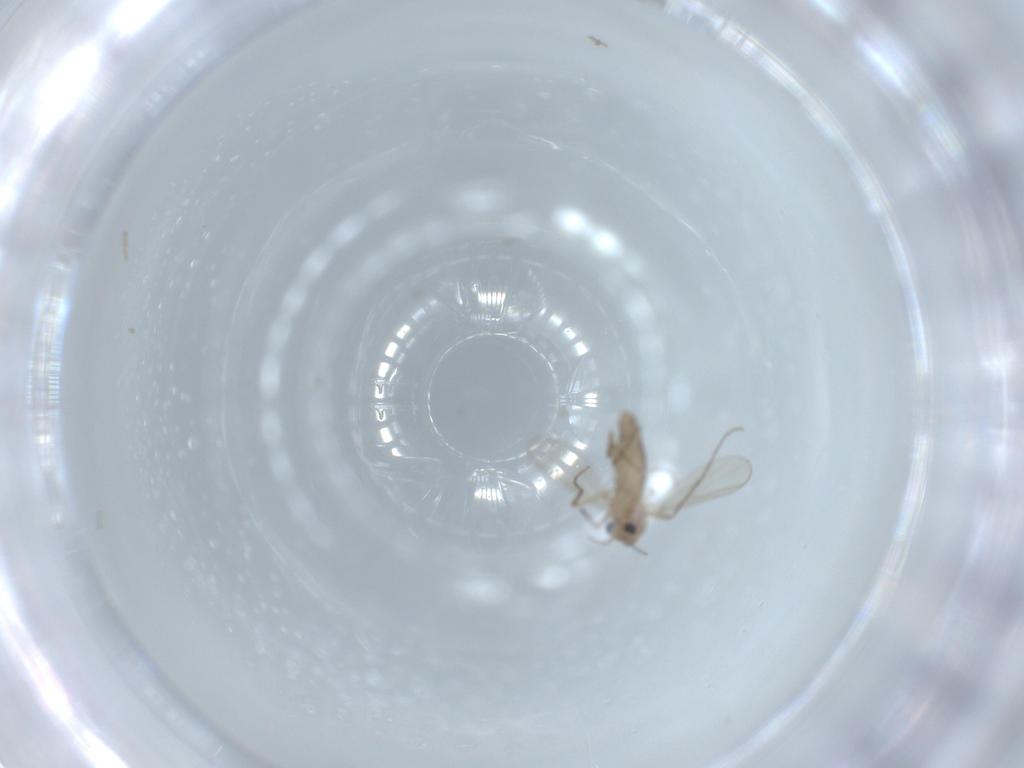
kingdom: Animalia
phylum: Arthropoda
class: Insecta
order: Diptera
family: Chironomidae
